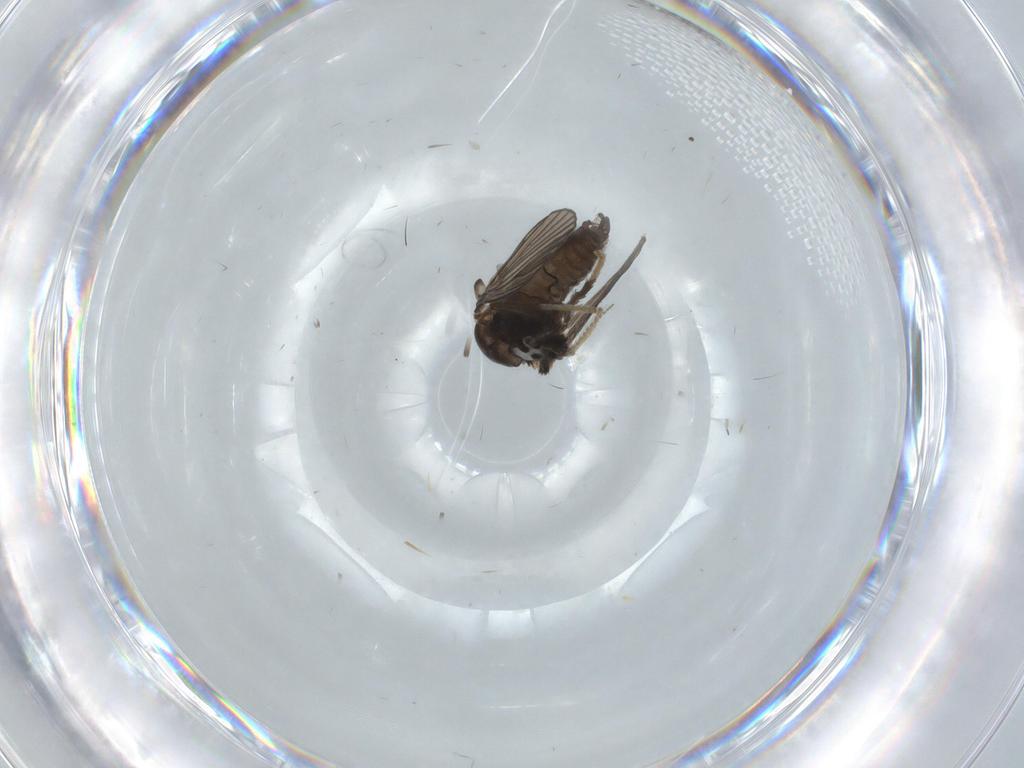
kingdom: Animalia
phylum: Arthropoda
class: Insecta
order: Diptera
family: Psychodidae
